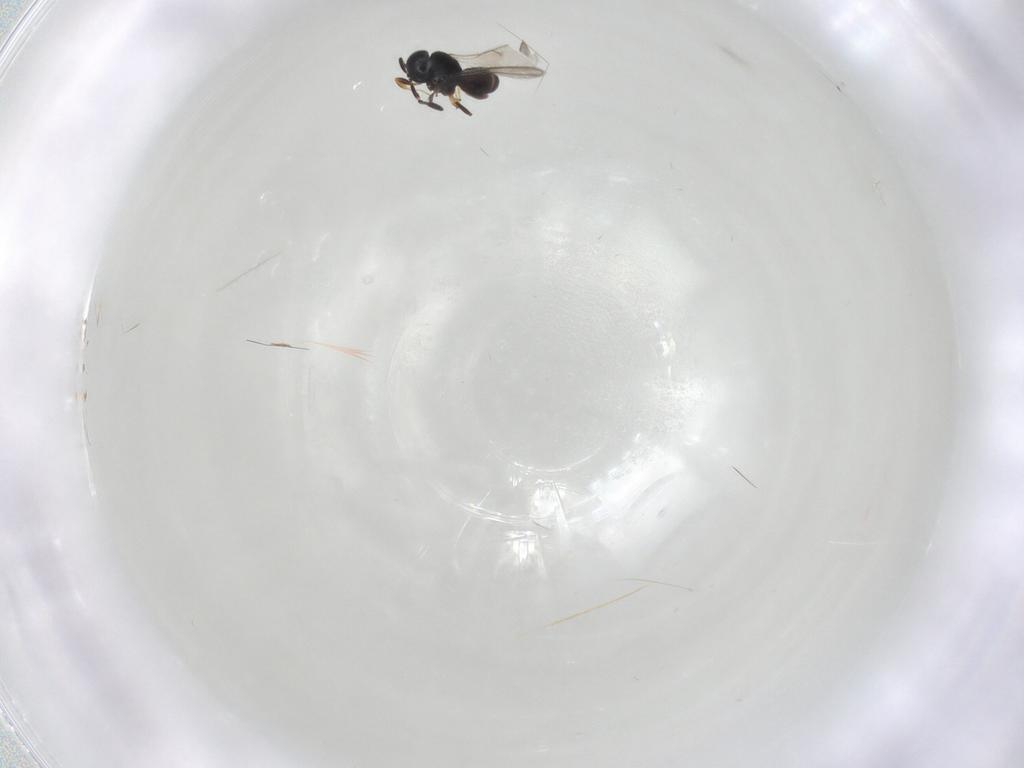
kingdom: Animalia
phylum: Arthropoda
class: Insecta
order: Hymenoptera
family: Scelionidae
